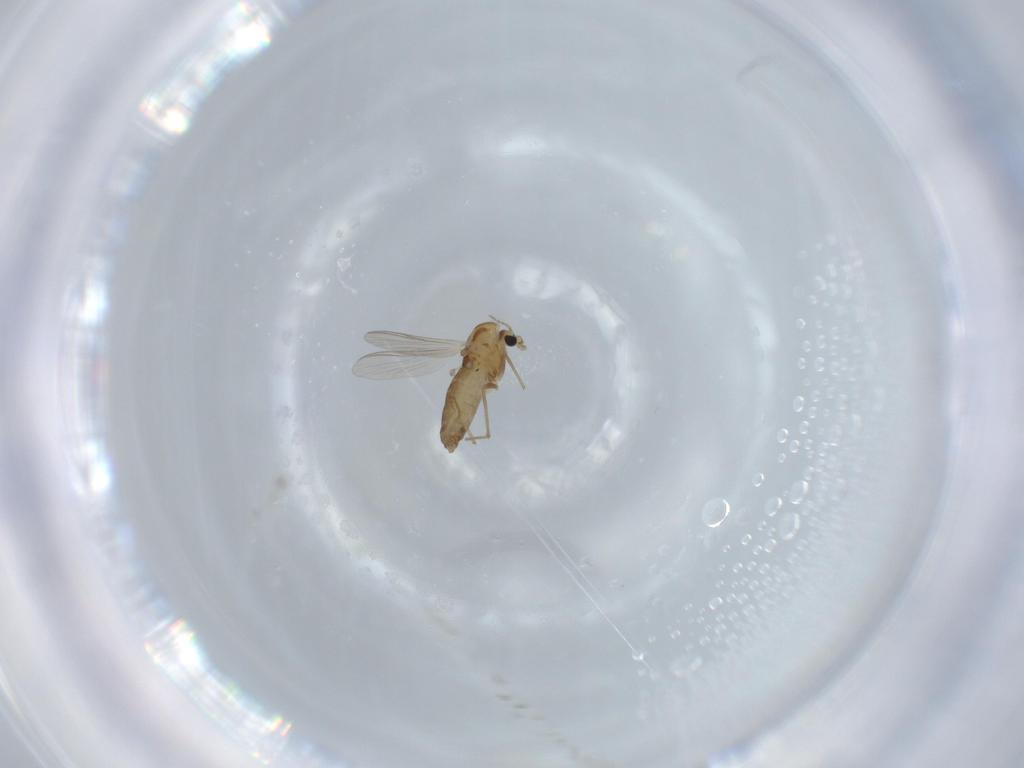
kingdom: Animalia
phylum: Arthropoda
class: Insecta
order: Diptera
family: Chironomidae
